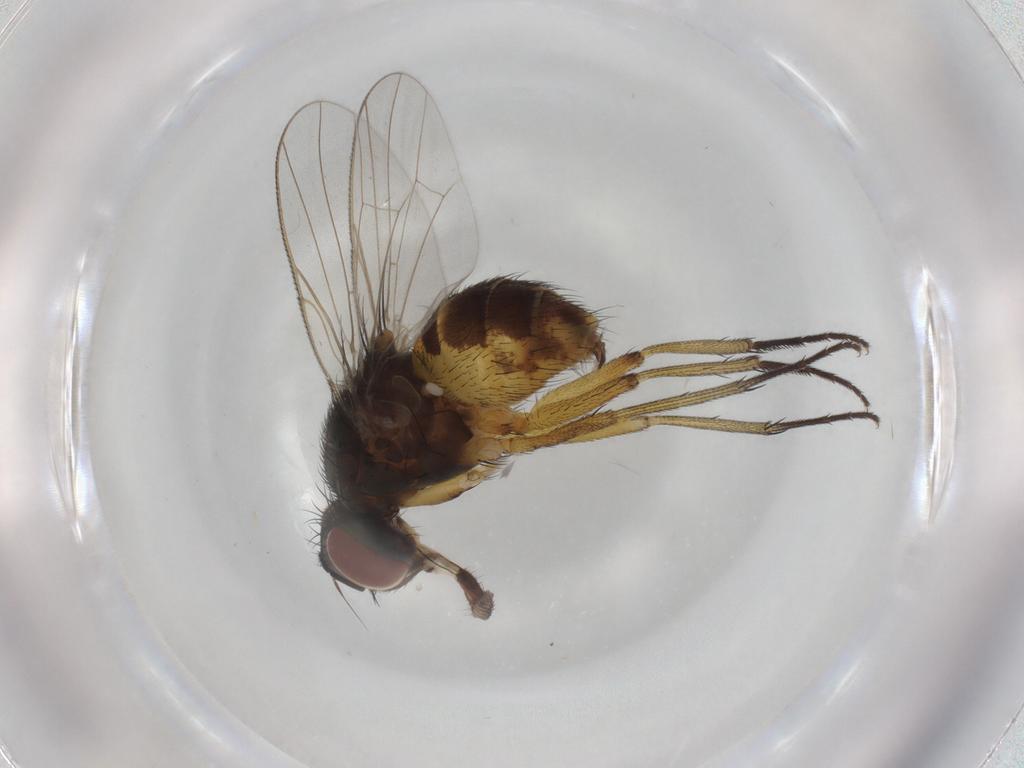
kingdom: Animalia
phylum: Arthropoda
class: Insecta
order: Diptera
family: Muscidae
